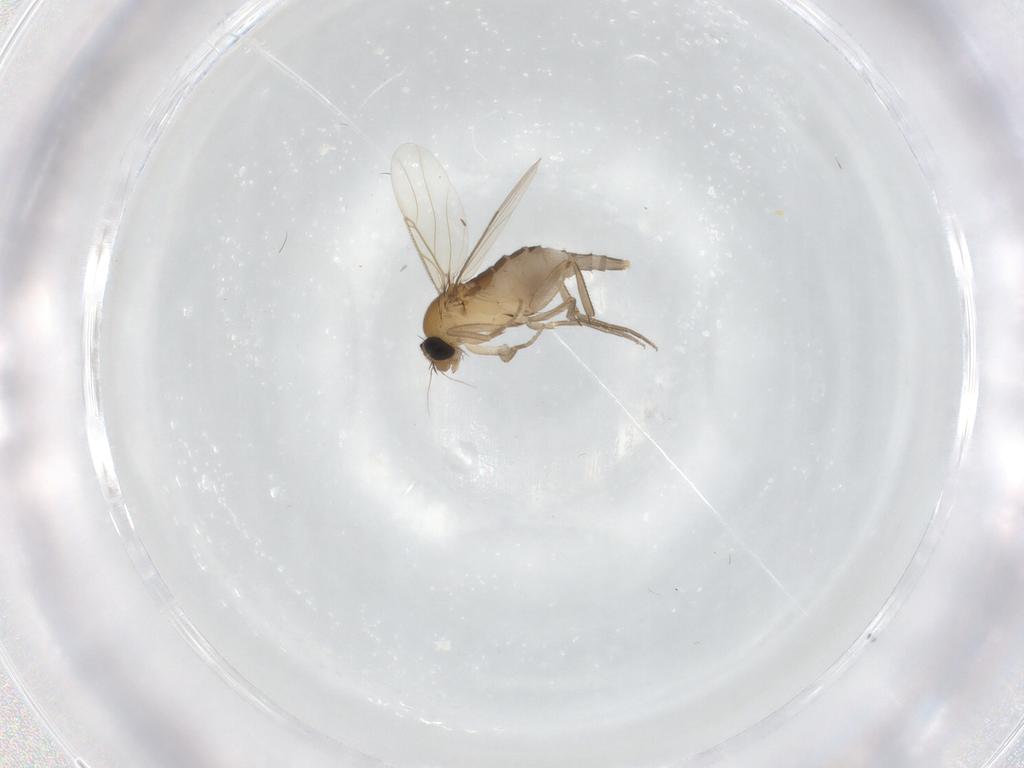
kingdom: Animalia
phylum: Arthropoda
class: Insecta
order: Diptera
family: Phoridae
